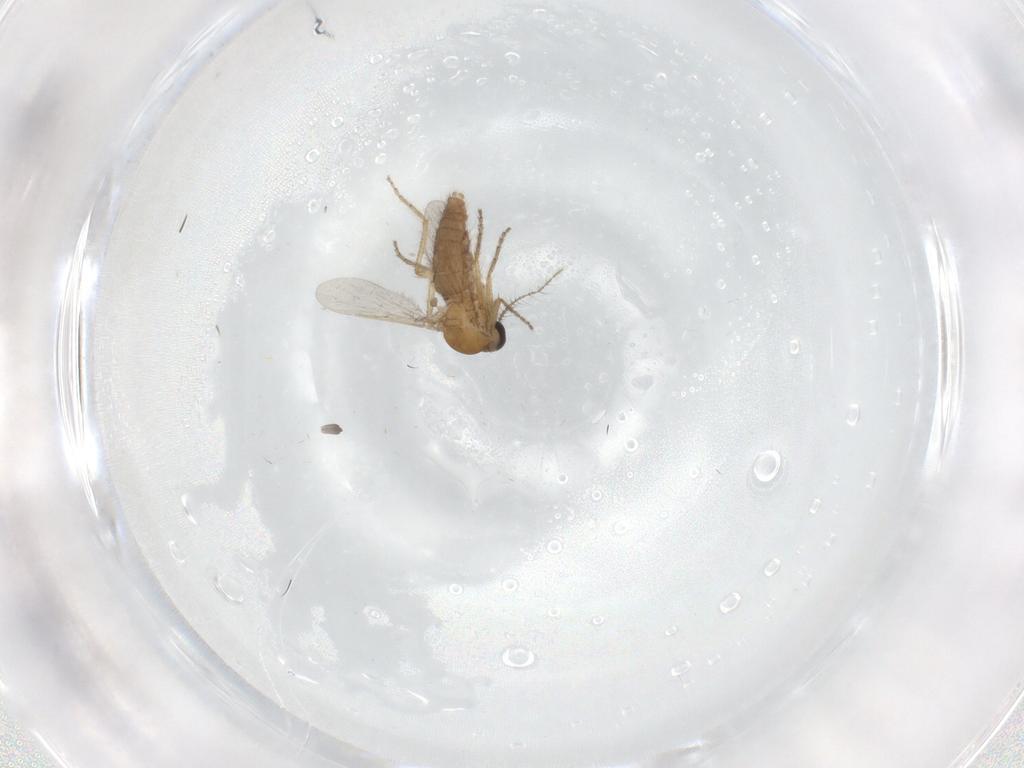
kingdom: Animalia
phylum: Arthropoda
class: Insecta
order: Diptera
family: Ceratopogonidae
